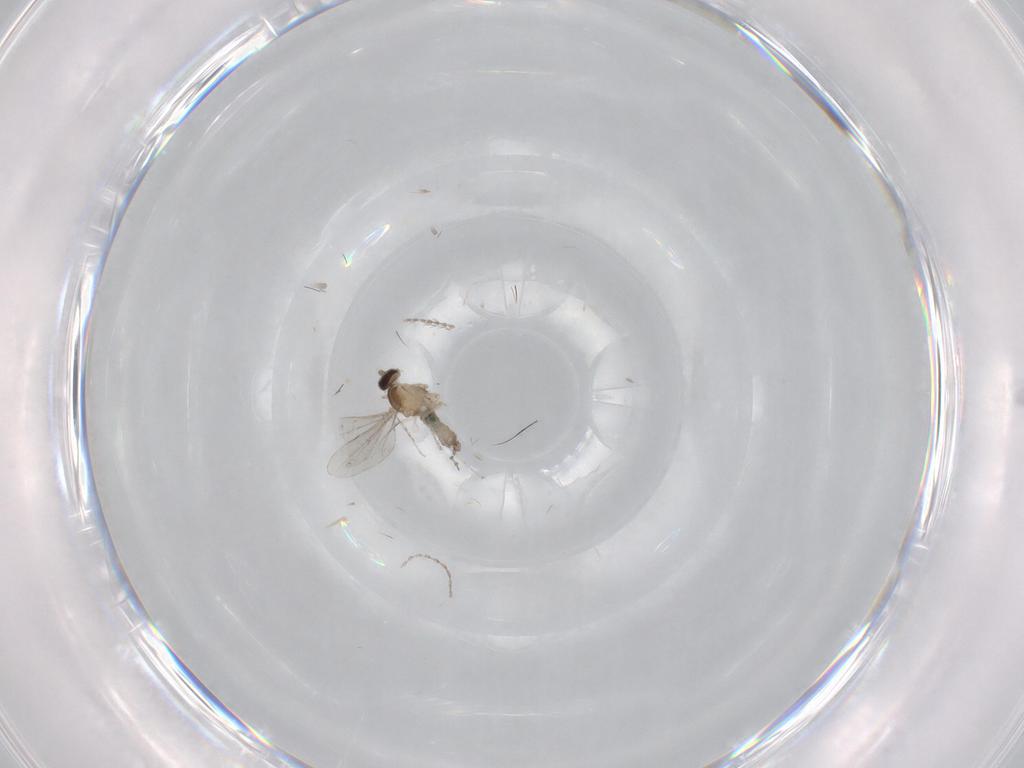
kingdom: Animalia
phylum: Arthropoda
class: Insecta
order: Diptera
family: Cecidomyiidae
